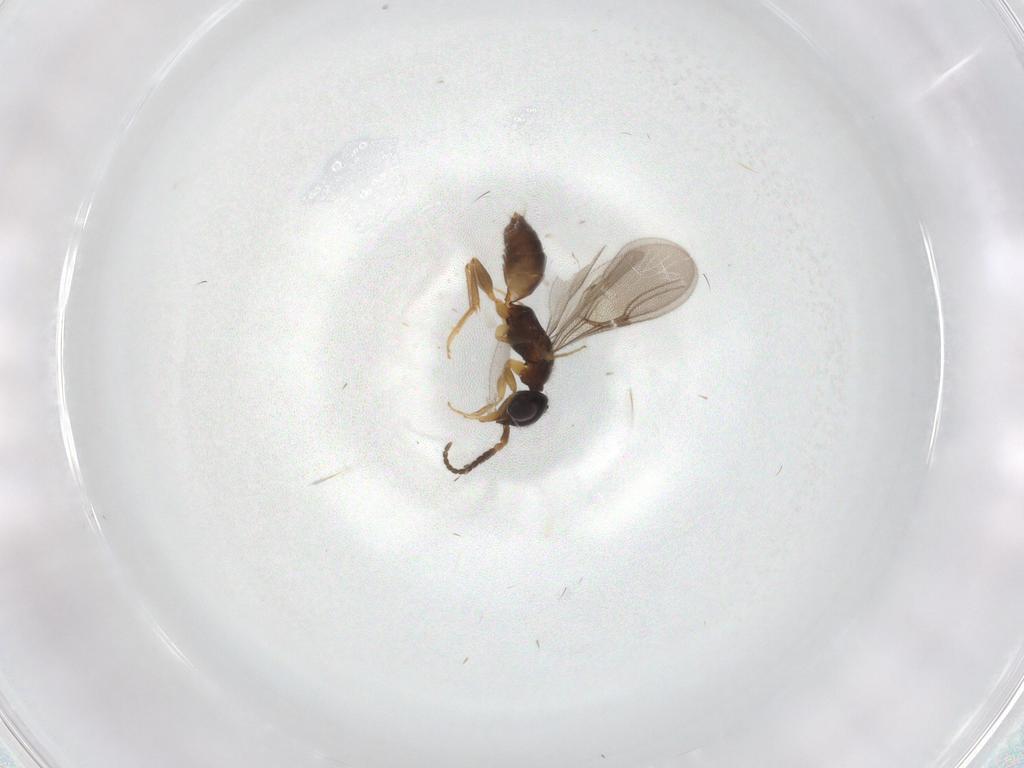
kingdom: Animalia
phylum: Arthropoda
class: Insecta
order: Hymenoptera
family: Bethylidae
